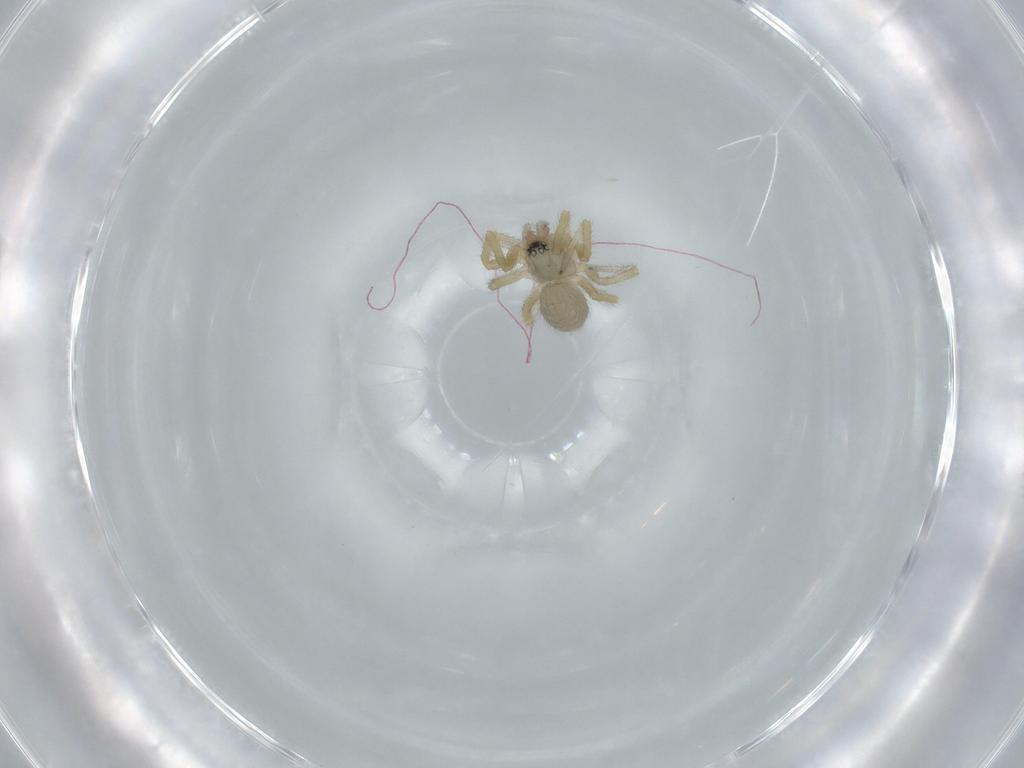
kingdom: Animalia
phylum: Arthropoda
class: Arachnida
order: Araneae
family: Linyphiidae
